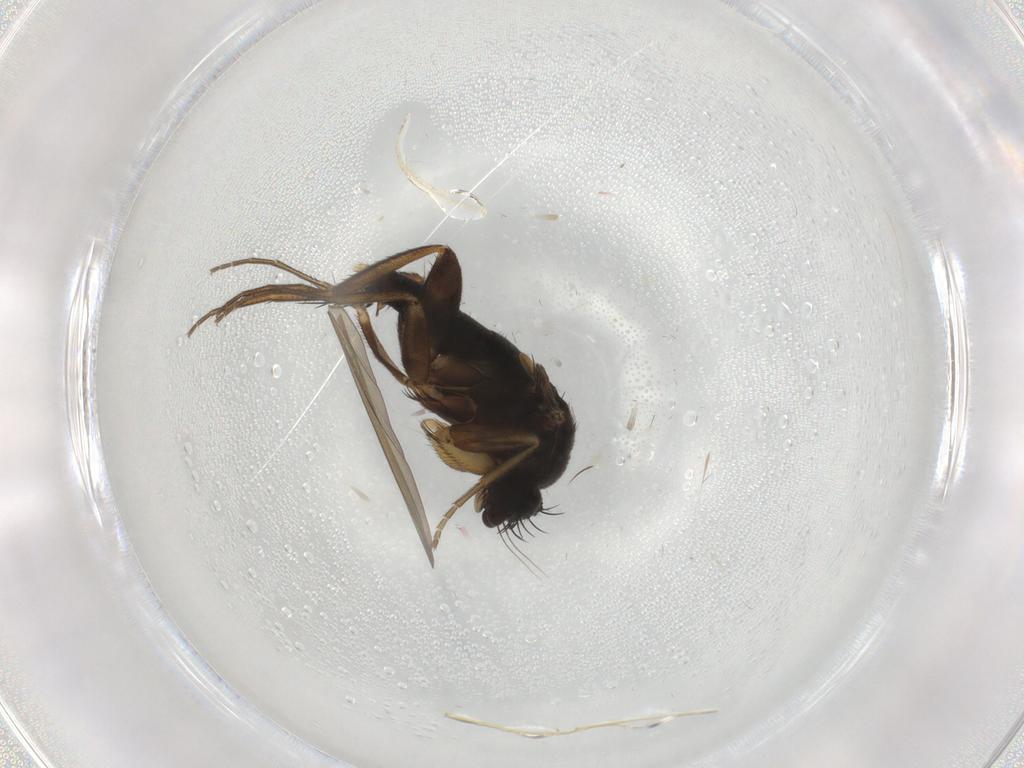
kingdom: Animalia
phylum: Arthropoda
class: Insecta
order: Diptera
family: Phoridae
